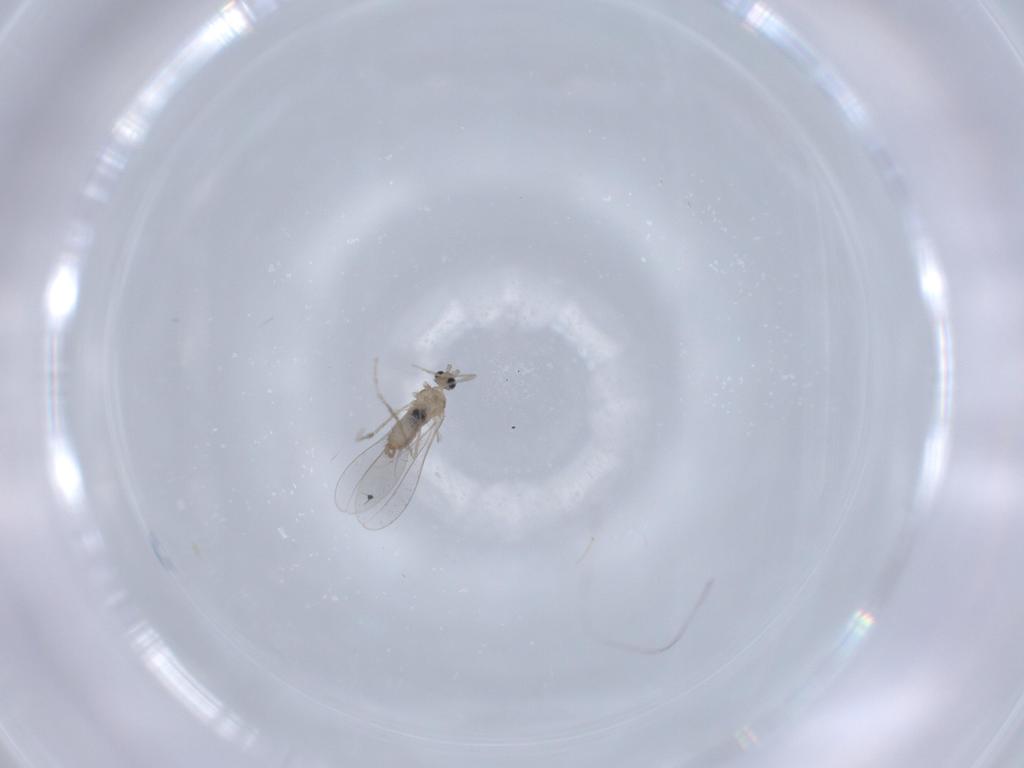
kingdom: Animalia
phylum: Arthropoda
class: Insecta
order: Diptera
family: Cecidomyiidae
